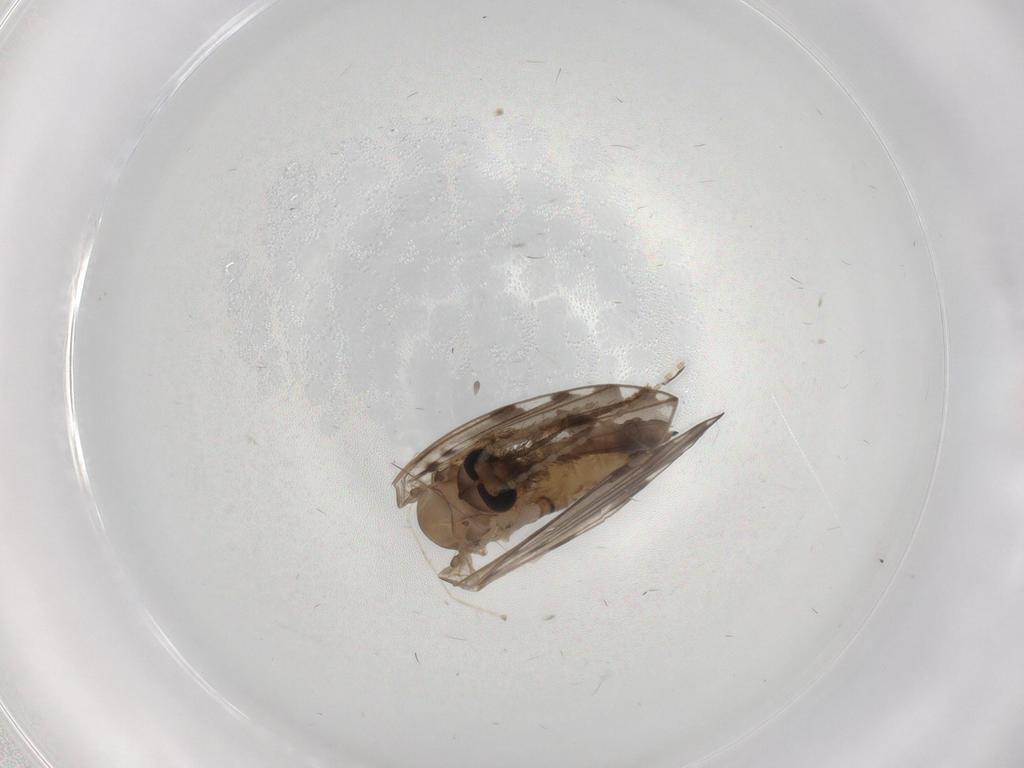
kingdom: Animalia
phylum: Arthropoda
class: Insecta
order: Diptera
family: Psychodidae
